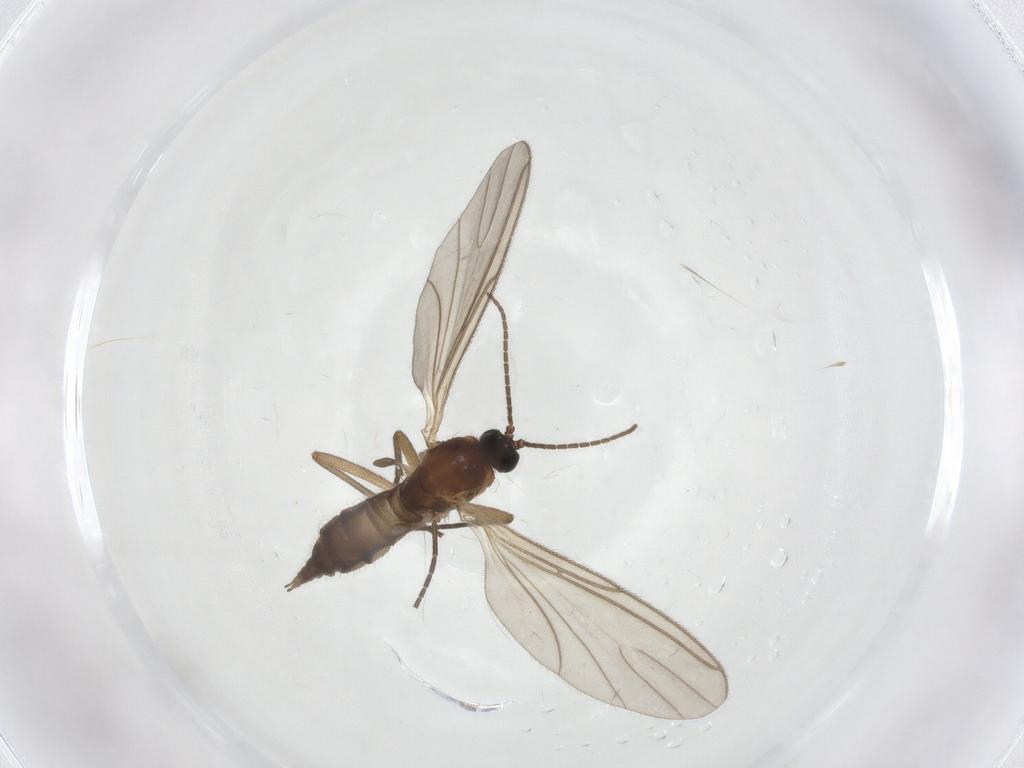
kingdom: Animalia
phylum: Arthropoda
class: Insecta
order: Diptera
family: Sciaridae
